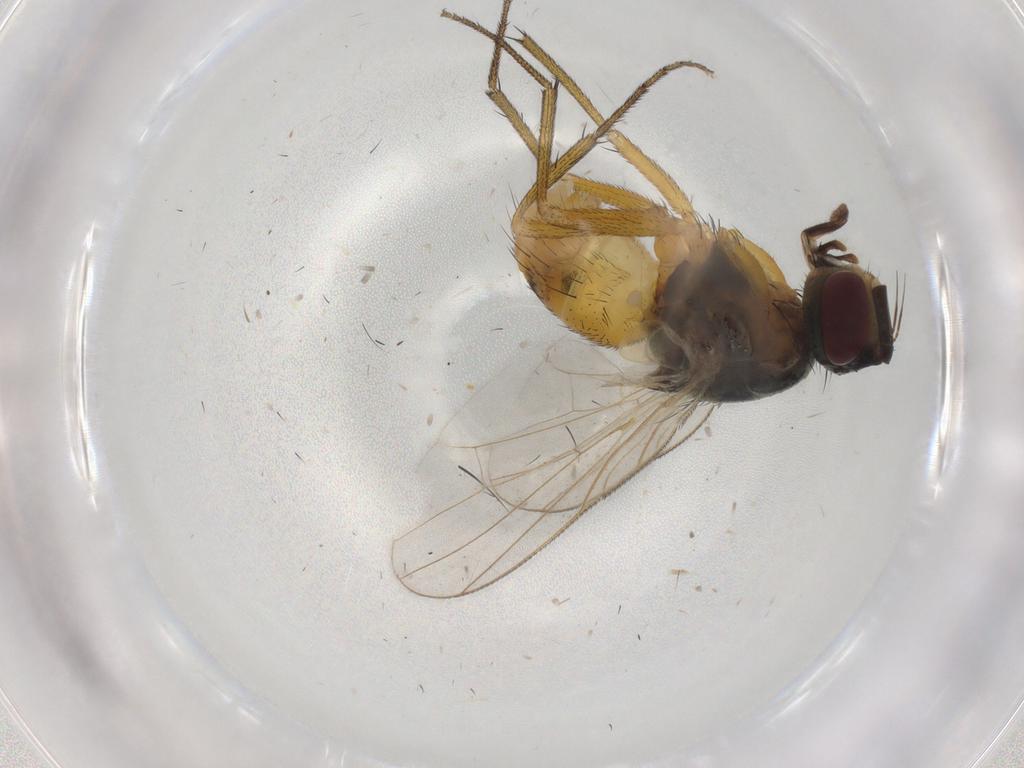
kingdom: Animalia
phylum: Arthropoda
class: Insecta
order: Diptera
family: Muscidae
